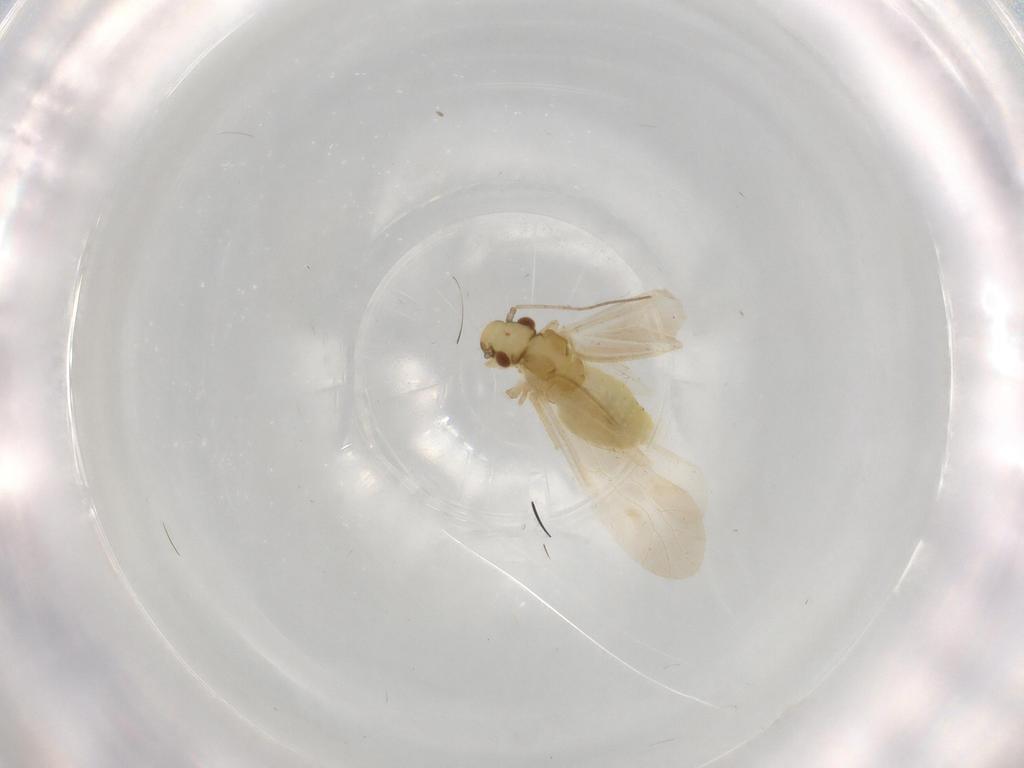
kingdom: Animalia
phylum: Arthropoda
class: Insecta
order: Psocodea
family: Caeciliusidae
